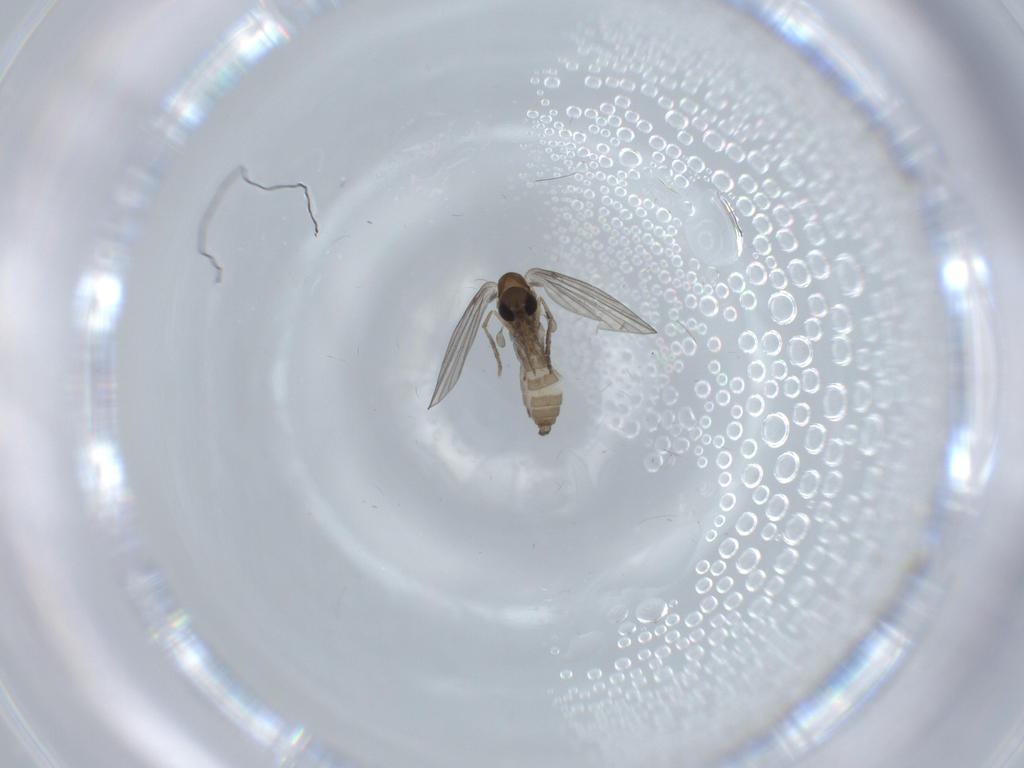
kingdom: Animalia
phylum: Arthropoda
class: Insecta
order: Diptera
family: Psychodidae
